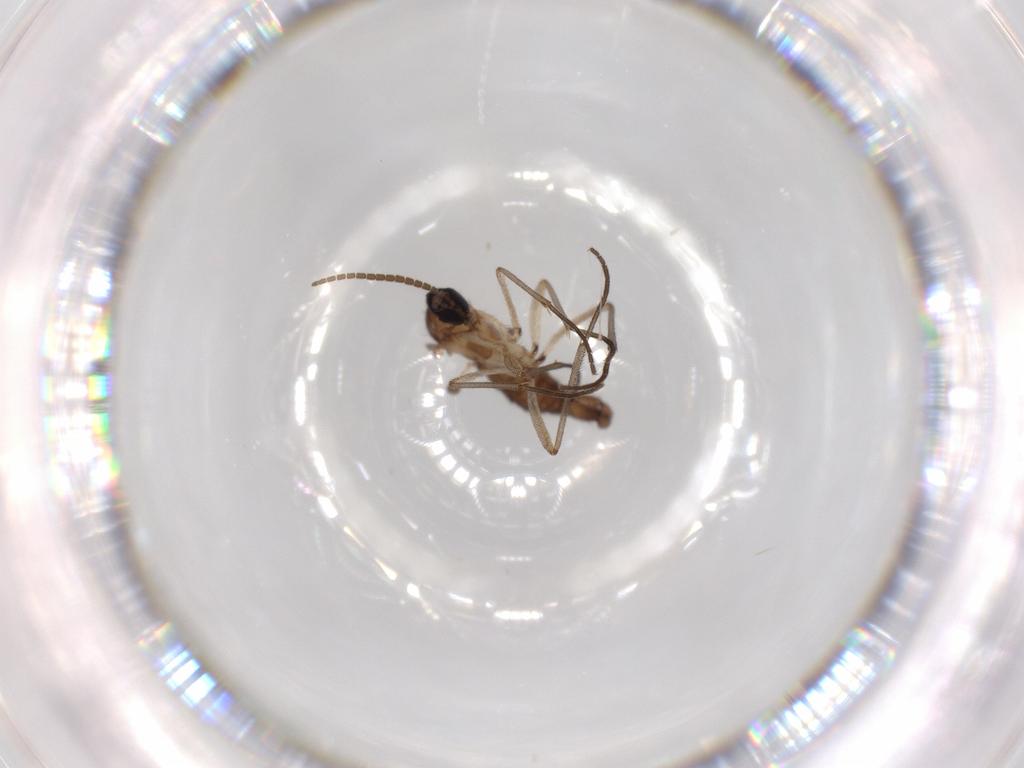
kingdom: Animalia
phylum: Arthropoda
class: Insecta
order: Diptera
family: Sciaridae
